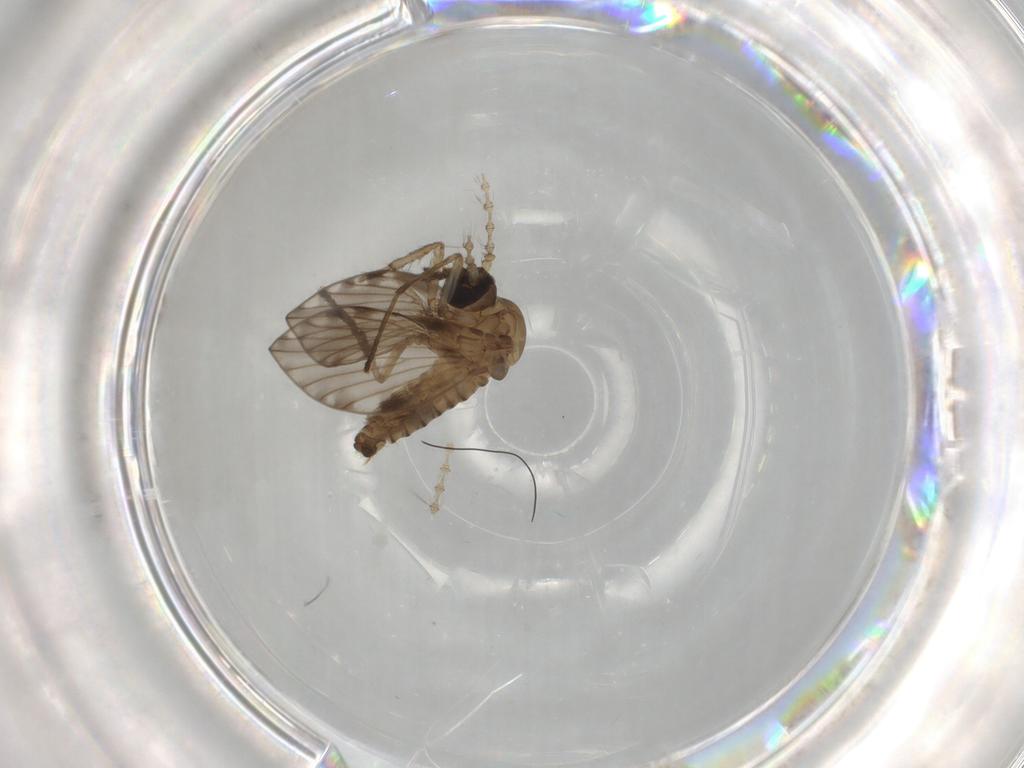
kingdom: Animalia
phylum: Arthropoda
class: Insecta
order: Diptera
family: Psychodidae
